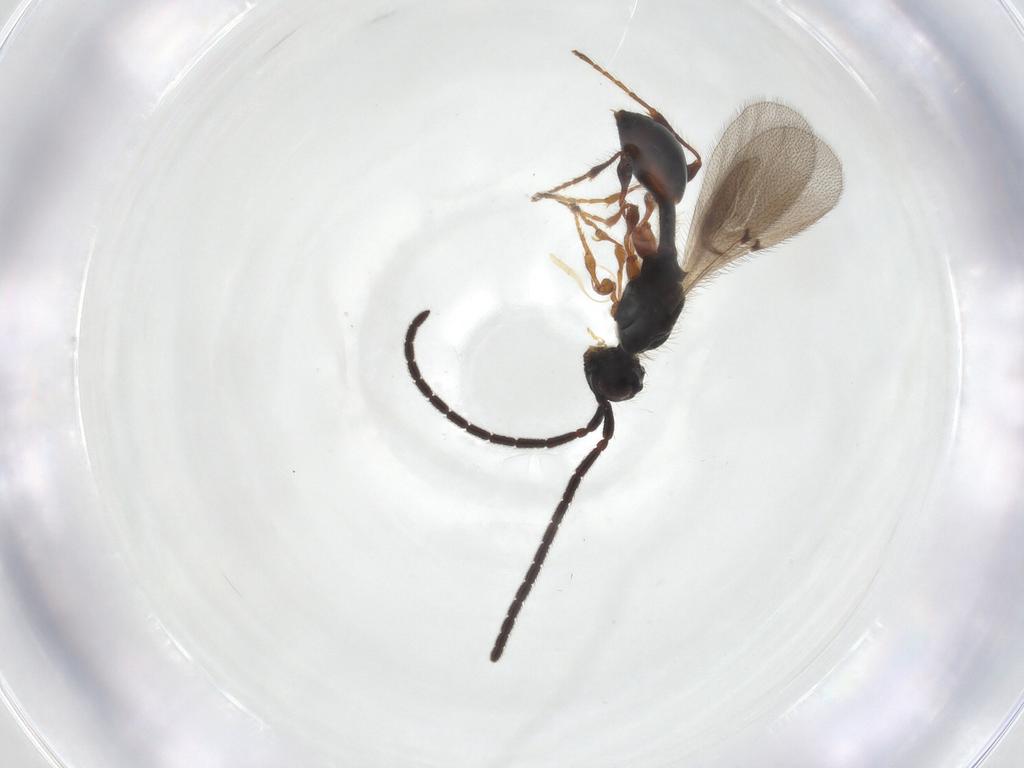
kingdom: Animalia
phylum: Arthropoda
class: Insecta
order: Hymenoptera
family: Diapriidae
